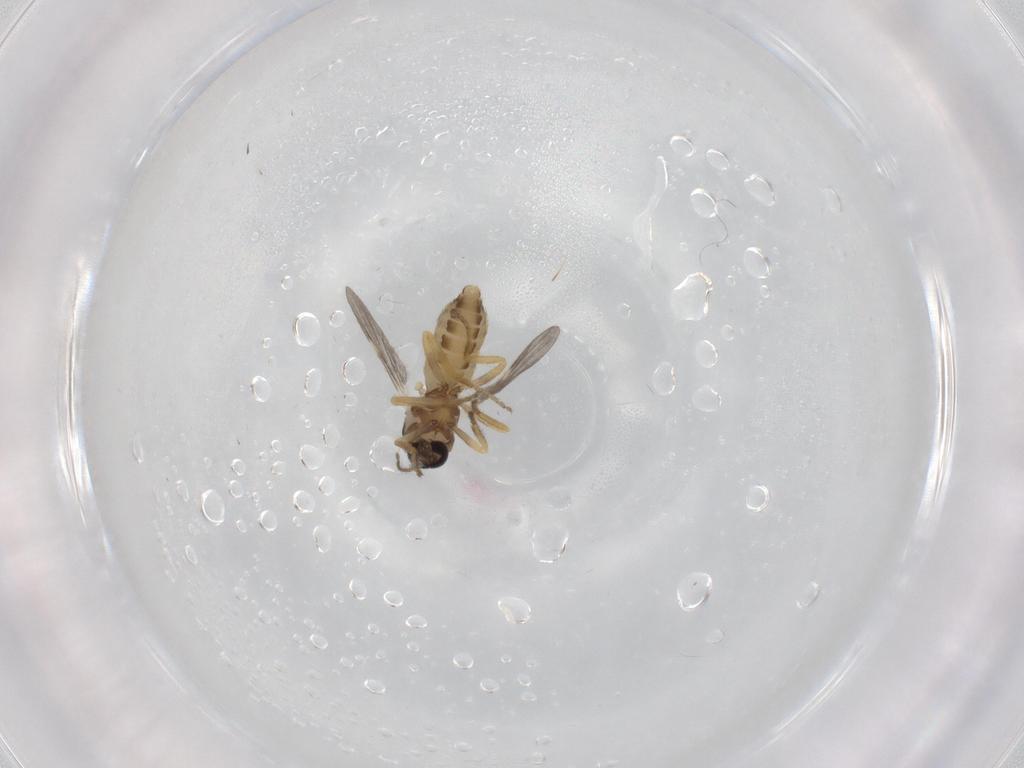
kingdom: Animalia
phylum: Arthropoda
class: Insecta
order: Diptera
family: Ceratopogonidae
